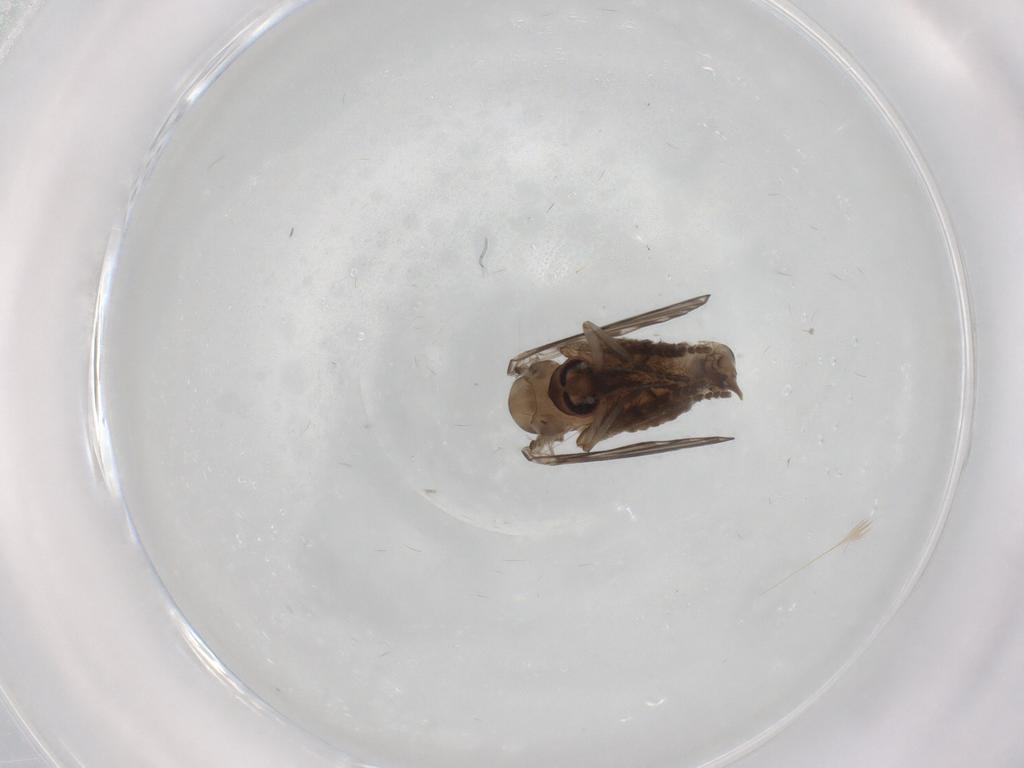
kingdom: Animalia
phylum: Arthropoda
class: Insecta
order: Diptera
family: Psychodidae
